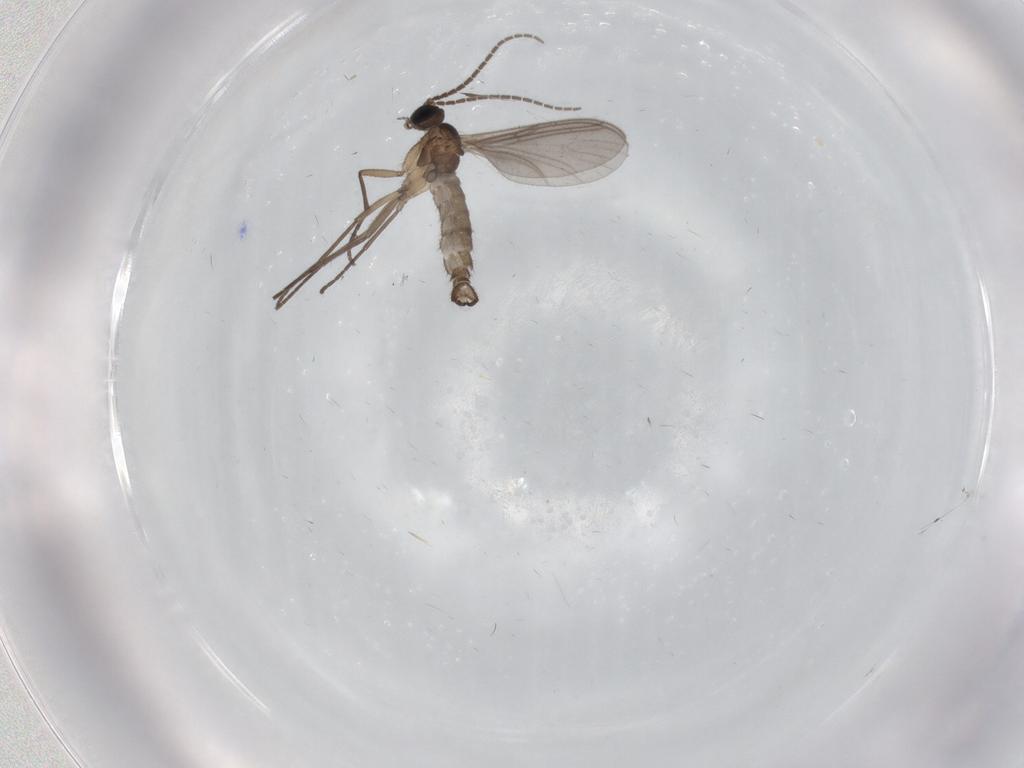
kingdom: Animalia
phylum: Arthropoda
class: Insecta
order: Diptera
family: Sciaridae
